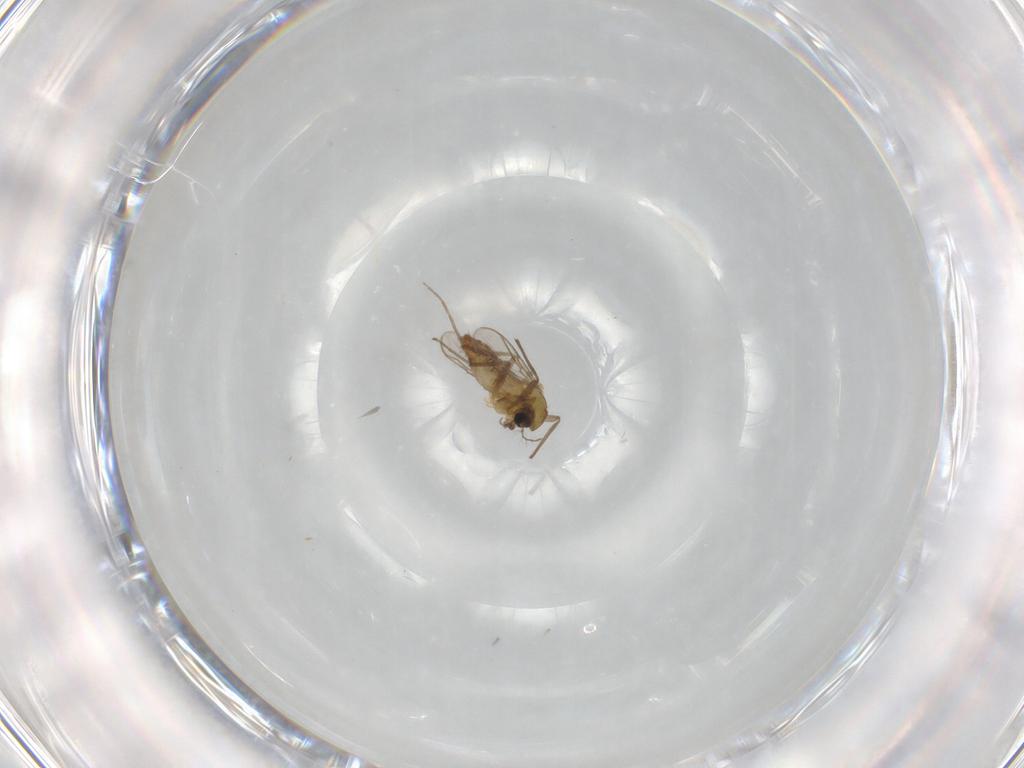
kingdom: Animalia
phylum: Arthropoda
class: Insecta
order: Diptera
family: Chironomidae
